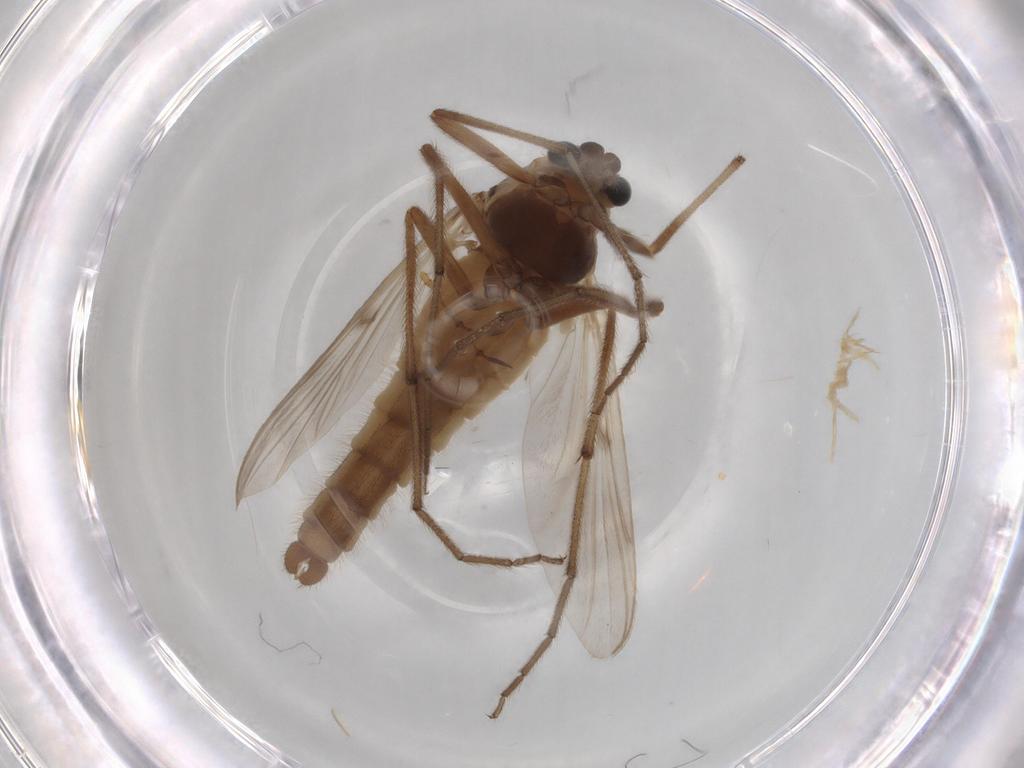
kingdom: Animalia
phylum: Arthropoda
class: Insecta
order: Diptera
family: Chironomidae
